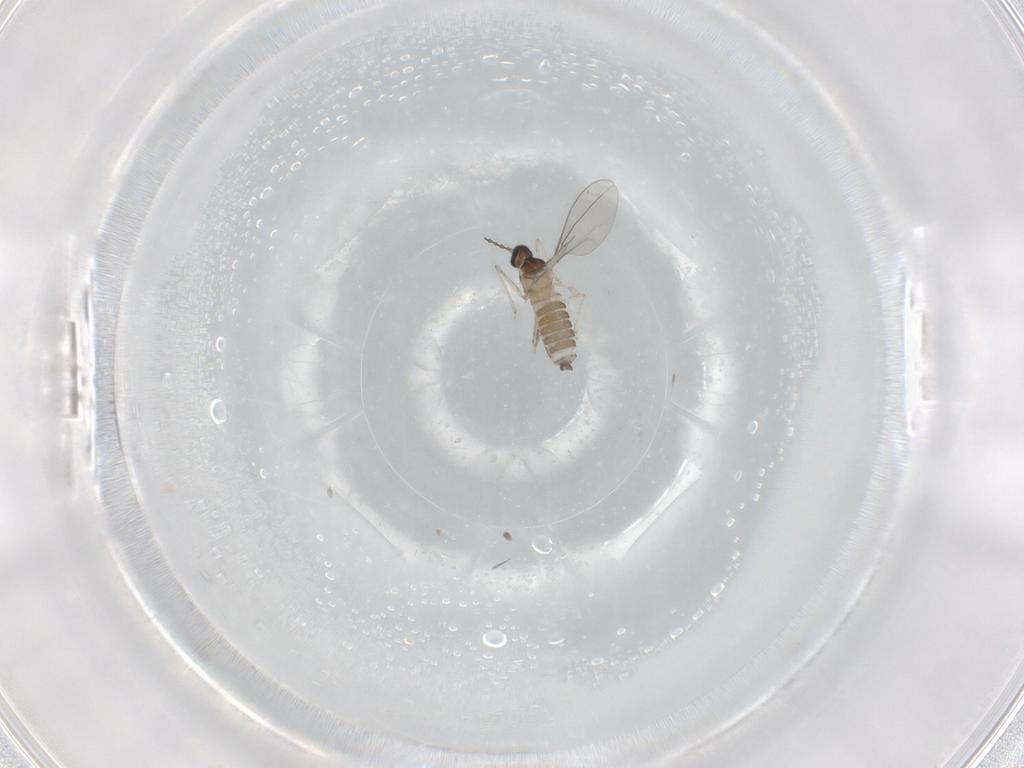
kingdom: Animalia
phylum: Arthropoda
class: Insecta
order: Diptera
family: Cecidomyiidae
